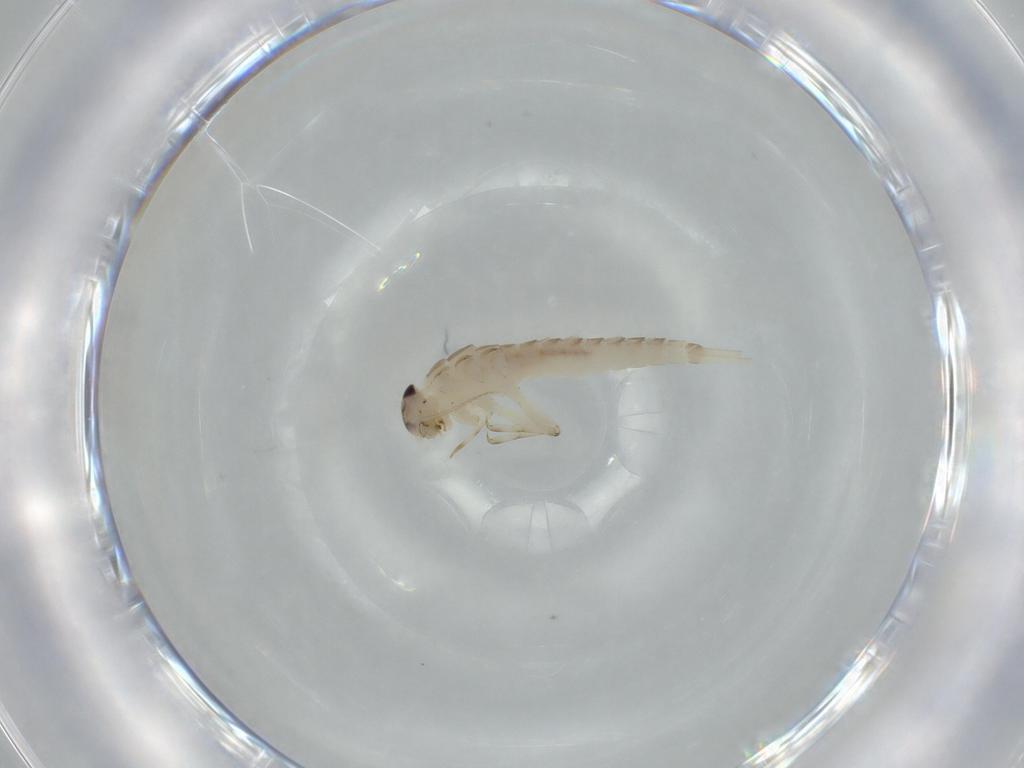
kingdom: Animalia
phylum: Arthropoda
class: Insecta
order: Ephemeroptera
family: Baetidae
